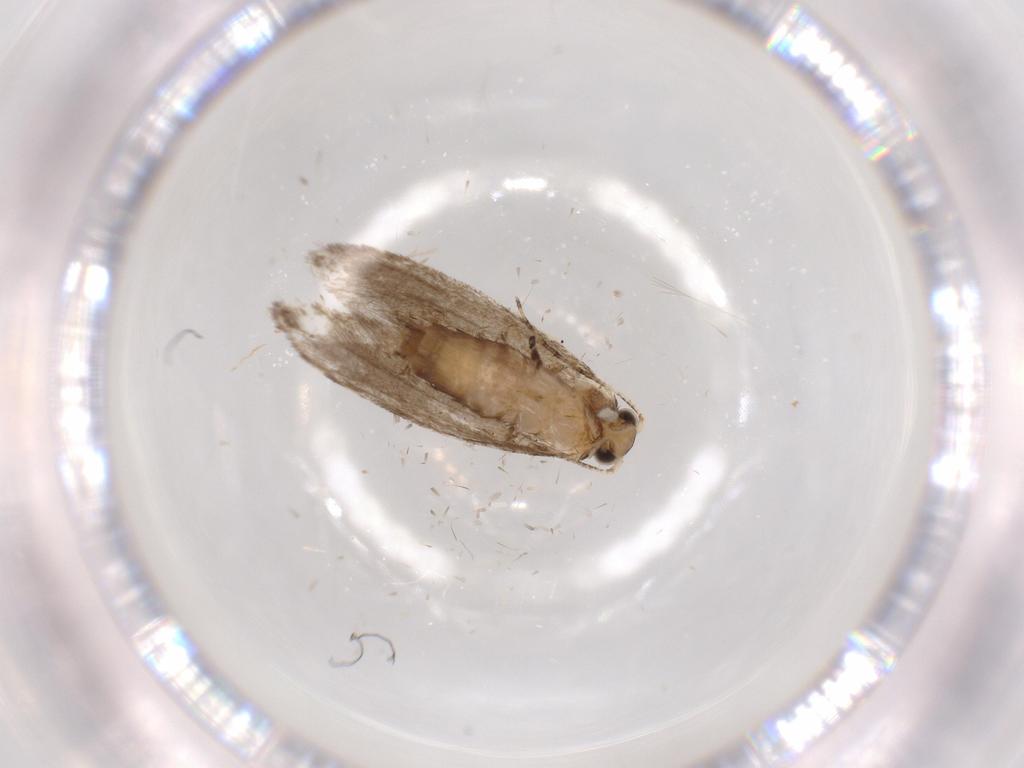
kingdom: Animalia
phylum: Arthropoda
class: Insecta
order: Lepidoptera
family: Tineidae
